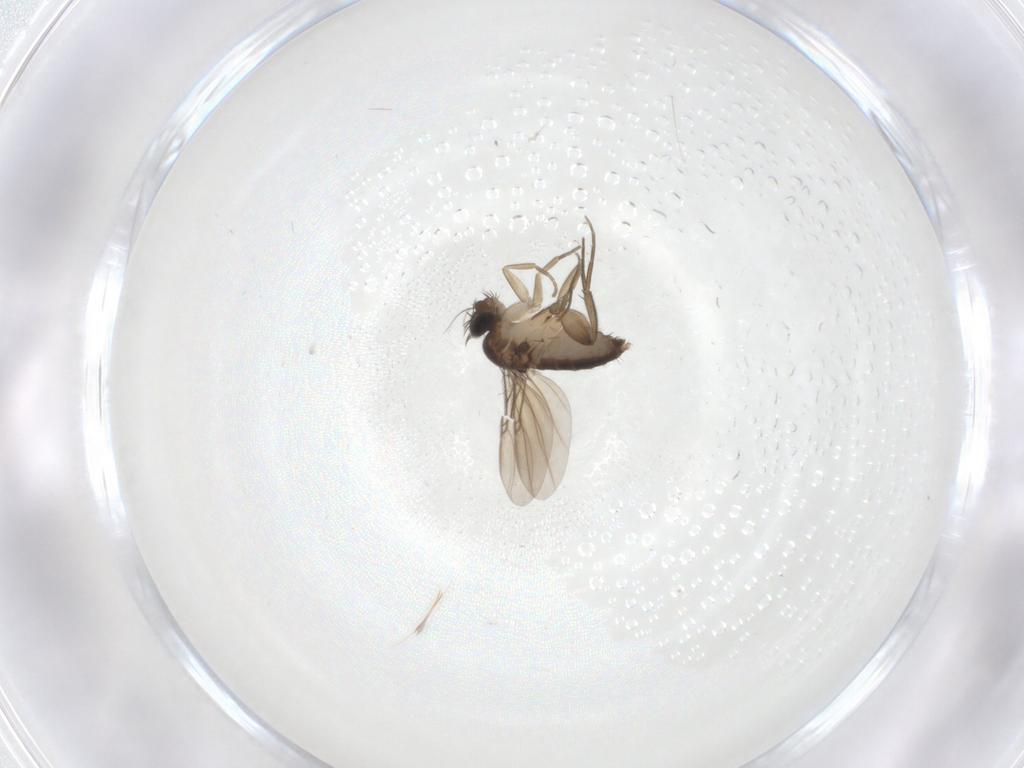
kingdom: Animalia
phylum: Arthropoda
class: Insecta
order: Diptera
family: Phoridae
